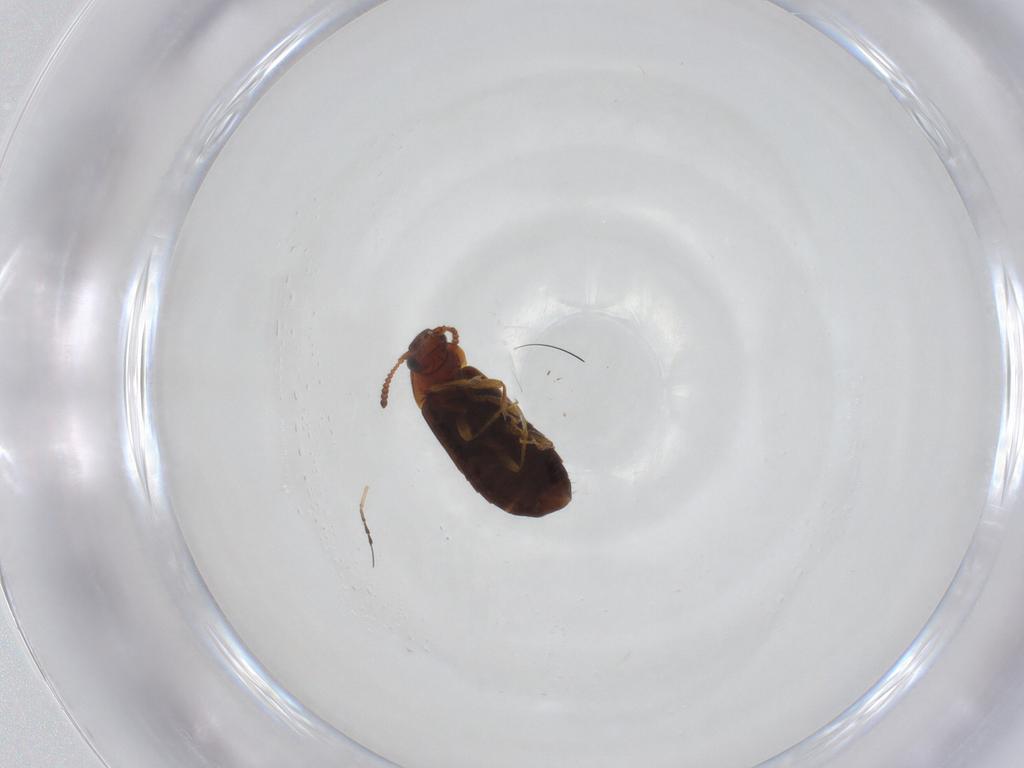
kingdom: Animalia
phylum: Arthropoda
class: Insecta
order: Coleoptera
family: Staphylinidae
